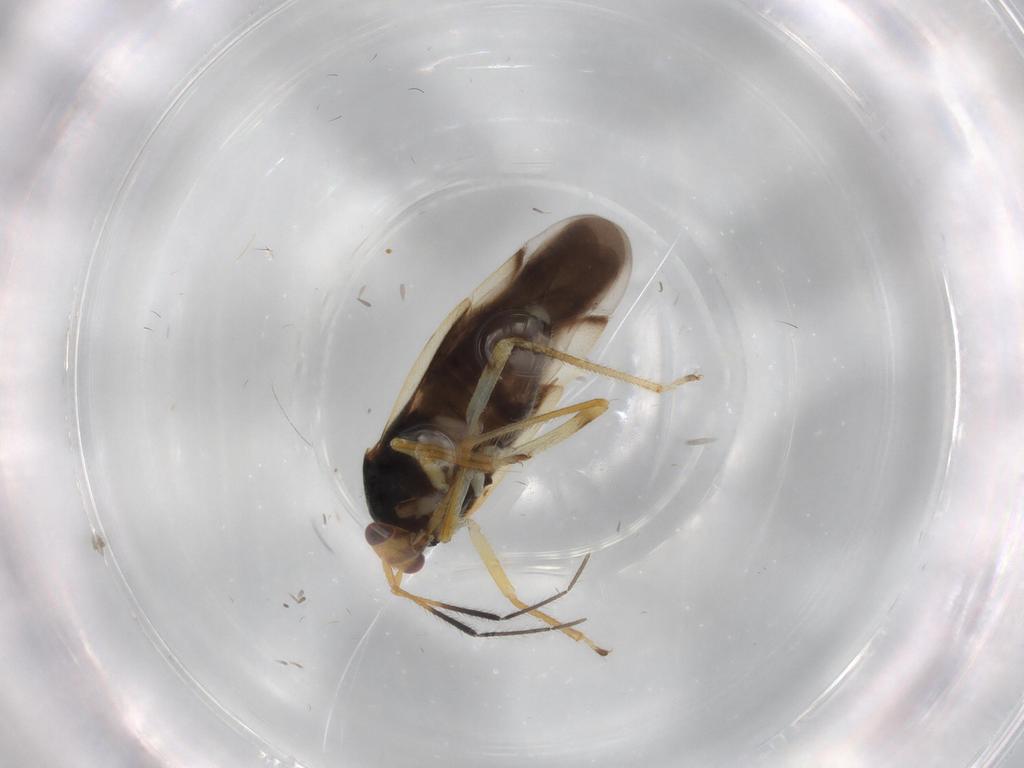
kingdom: Animalia
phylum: Arthropoda
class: Insecta
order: Hemiptera
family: Miridae
